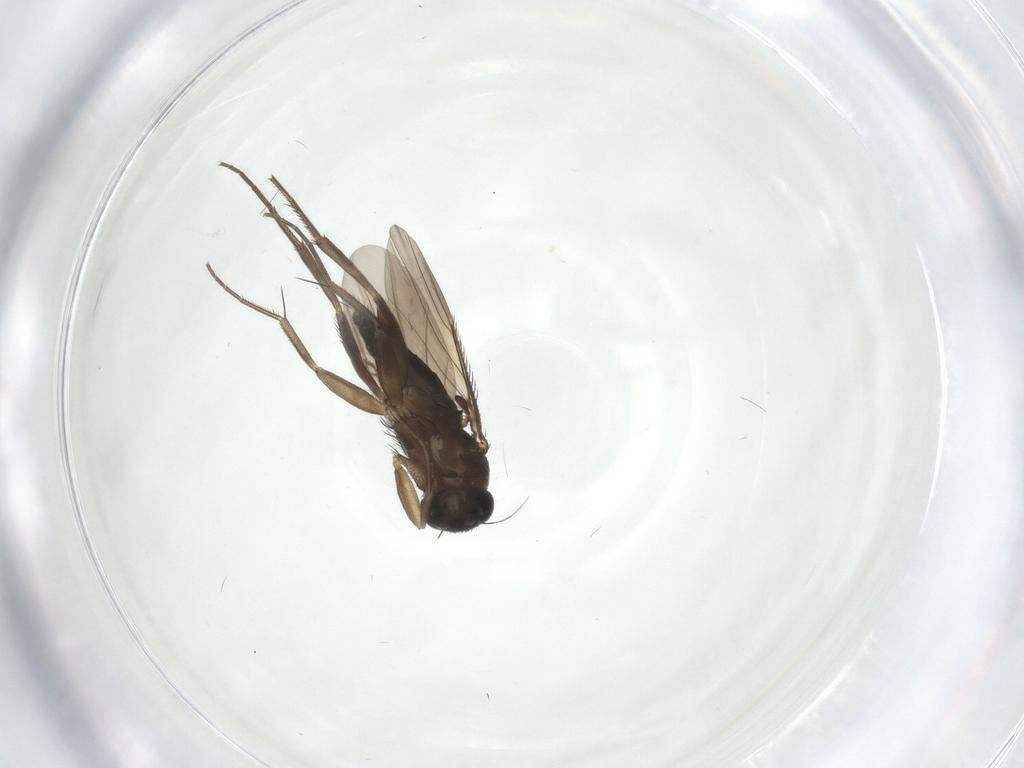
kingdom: Animalia
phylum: Arthropoda
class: Insecta
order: Diptera
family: Phoridae
